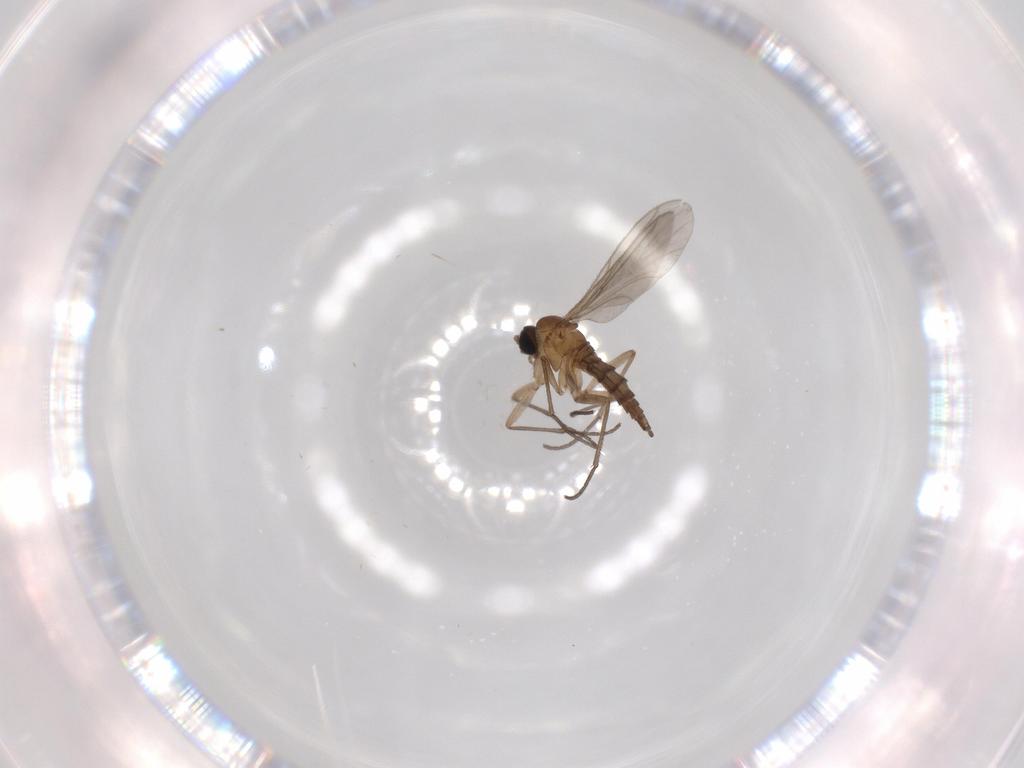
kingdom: Animalia
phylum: Arthropoda
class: Insecta
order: Diptera
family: Sciaridae
